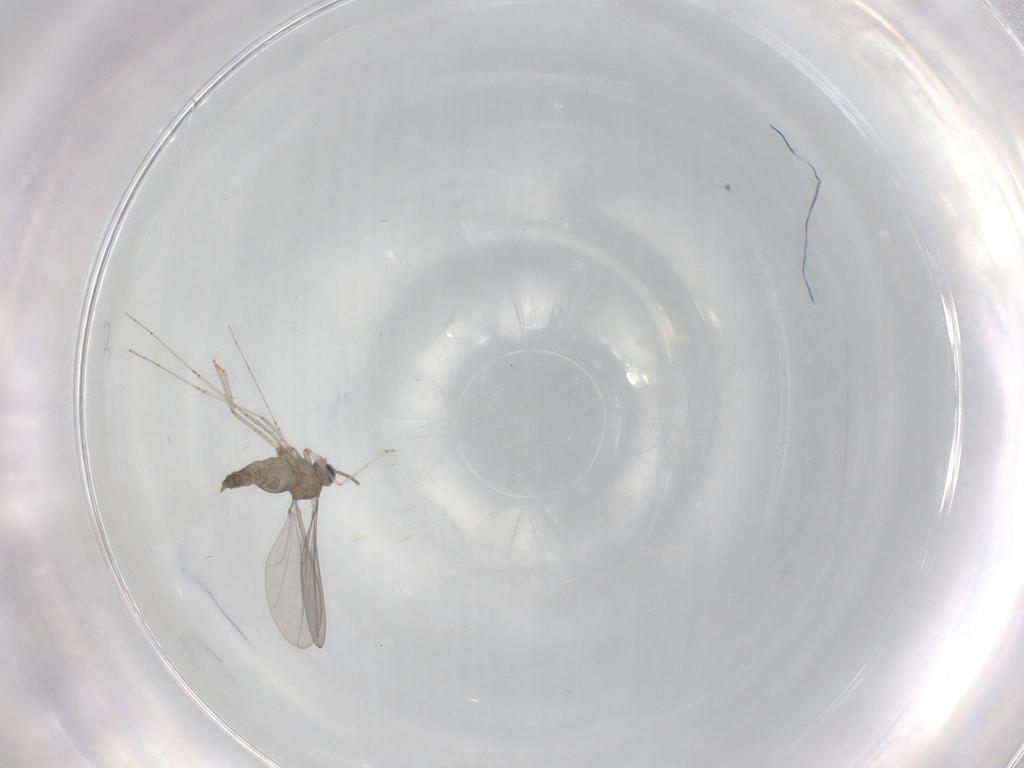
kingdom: Animalia
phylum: Arthropoda
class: Insecta
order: Diptera
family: Cecidomyiidae
